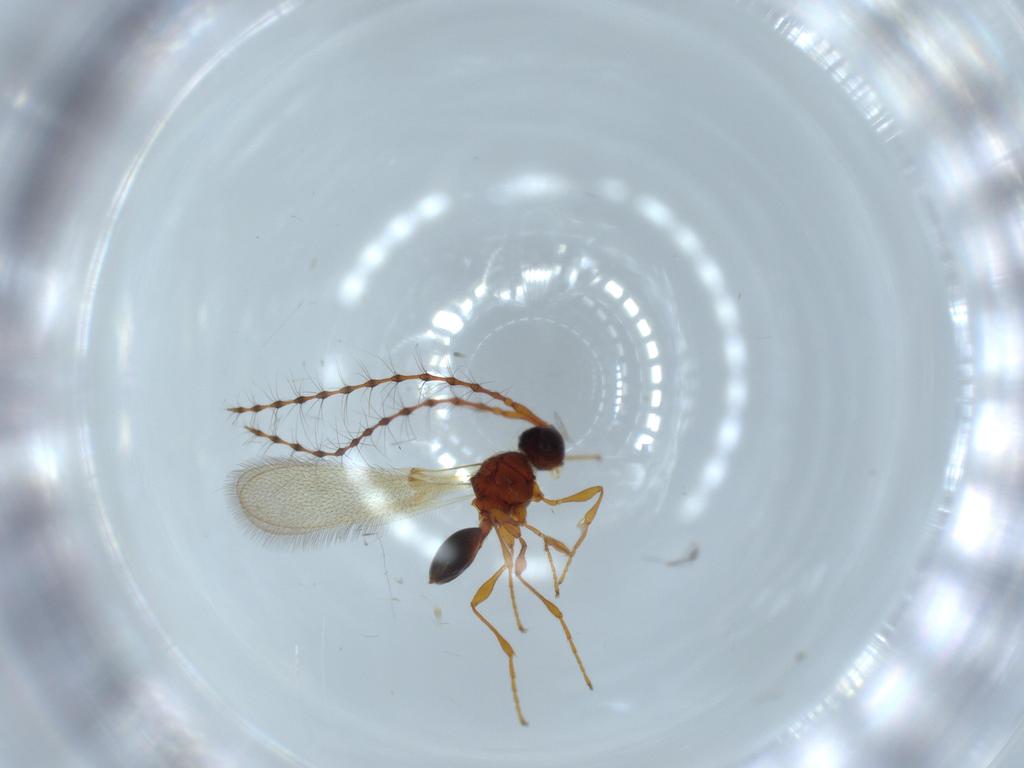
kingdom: Animalia
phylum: Arthropoda
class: Insecta
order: Hymenoptera
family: Diapriidae
